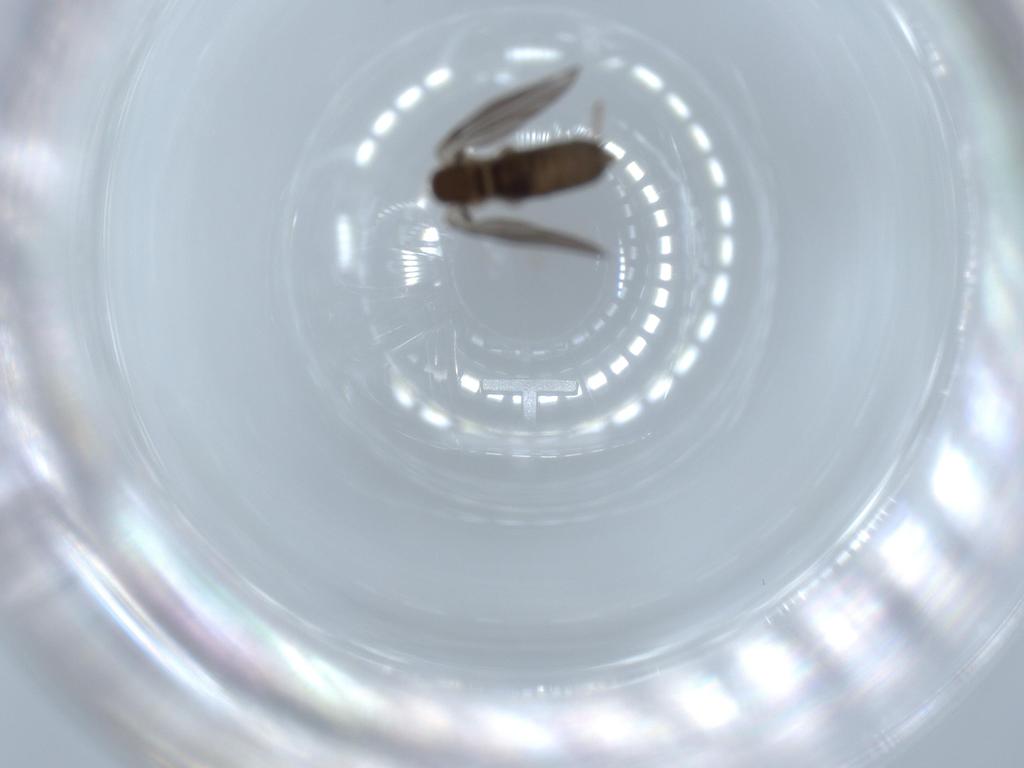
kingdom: Animalia
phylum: Arthropoda
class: Insecta
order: Diptera
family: Psychodidae
